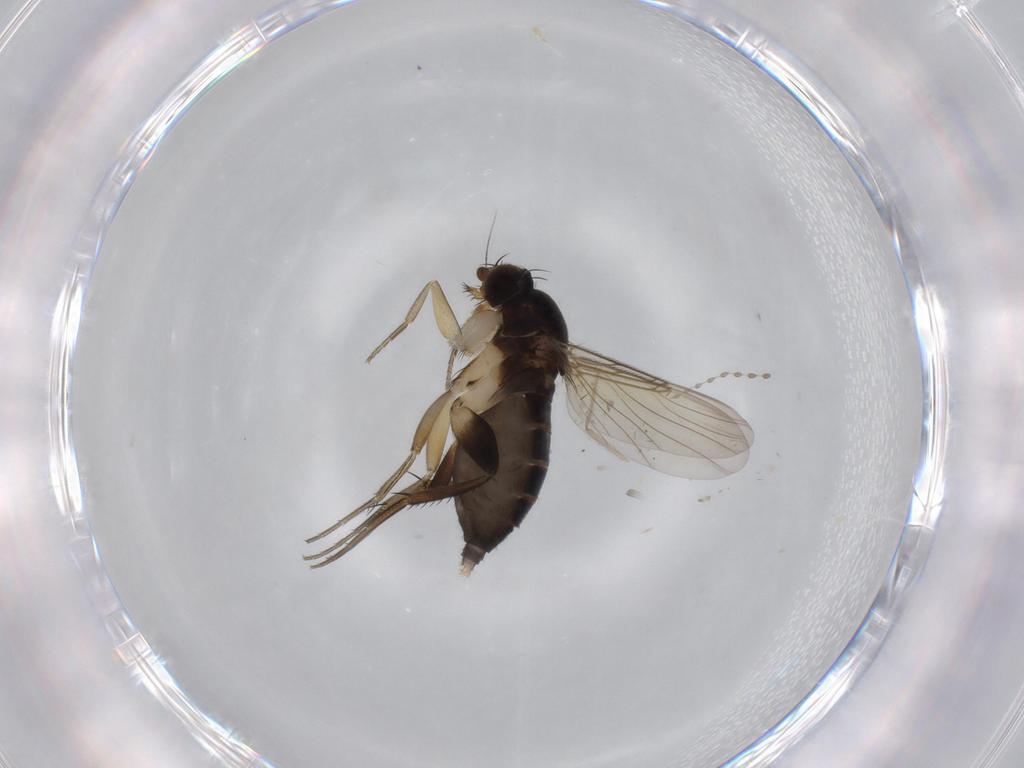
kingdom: Animalia
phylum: Arthropoda
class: Insecta
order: Diptera
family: Phoridae
